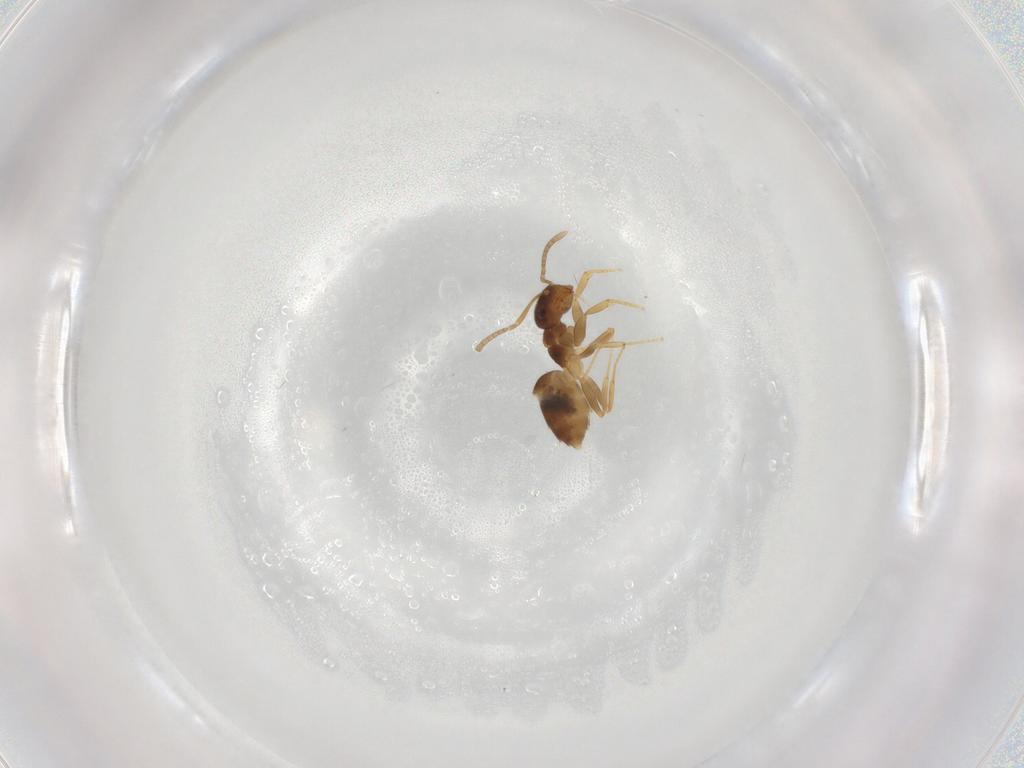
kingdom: Animalia
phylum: Arthropoda
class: Insecta
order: Hymenoptera
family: Formicidae
